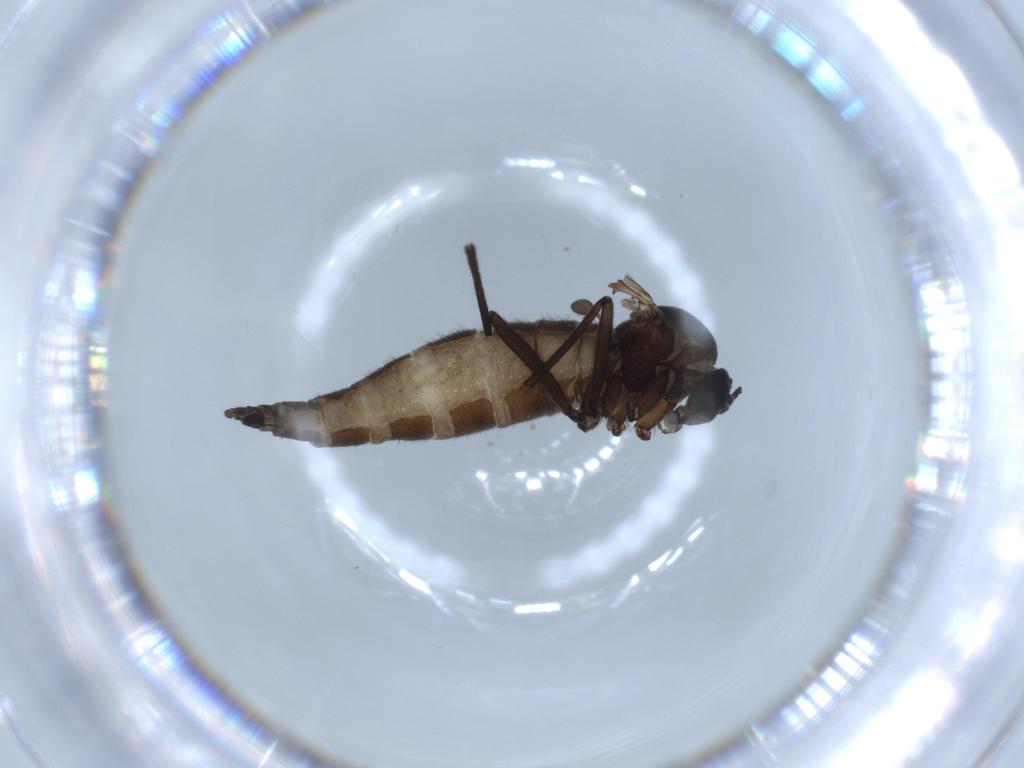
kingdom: Animalia
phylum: Arthropoda
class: Insecta
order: Diptera
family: Sciaridae
